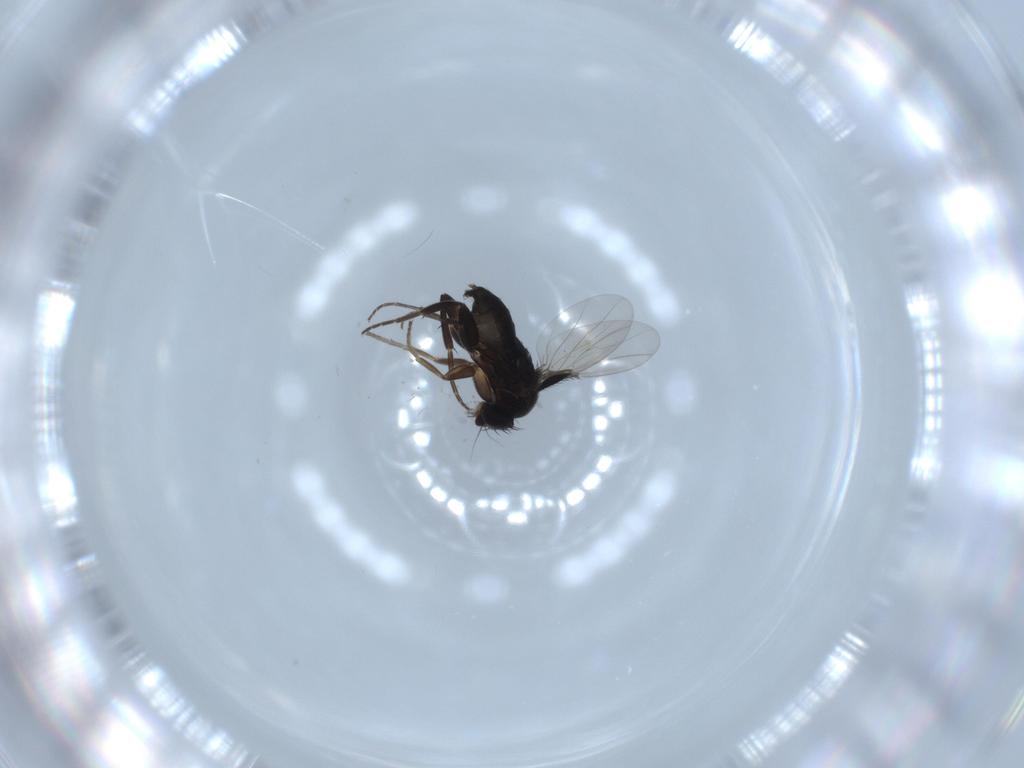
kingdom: Animalia
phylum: Arthropoda
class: Insecta
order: Diptera
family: Phoridae
